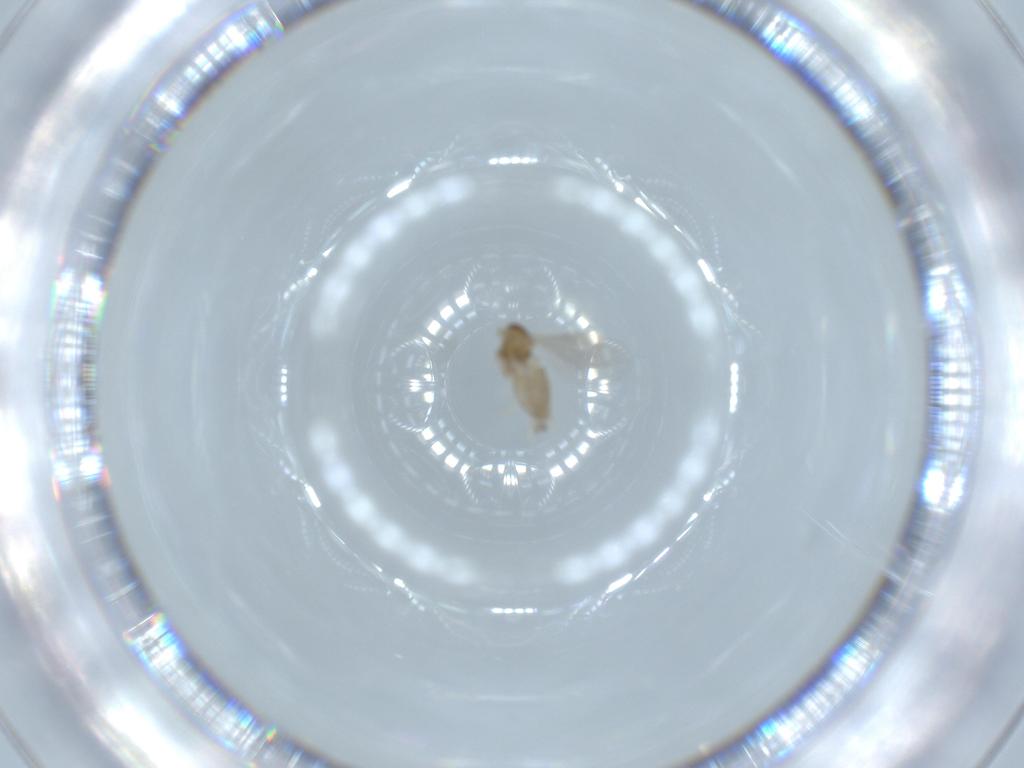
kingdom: Animalia
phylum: Arthropoda
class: Insecta
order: Diptera
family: Cecidomyiidae
